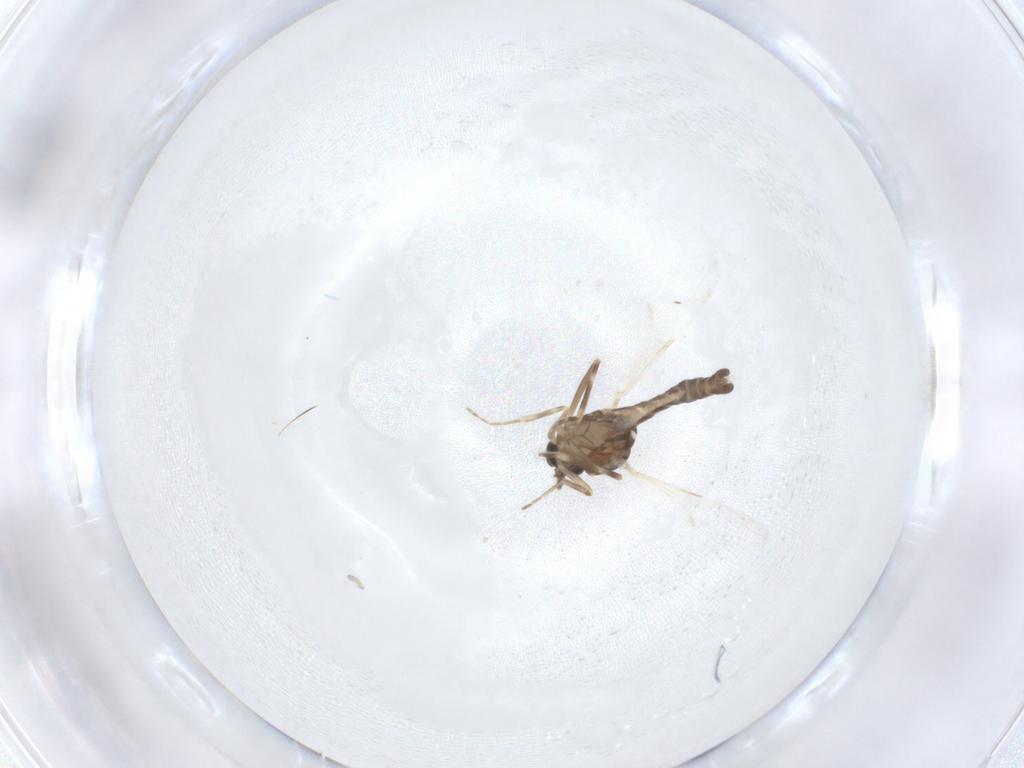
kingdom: Animalia
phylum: Arthropoda
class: Insecta
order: Diptera
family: Ceratopogonidae
